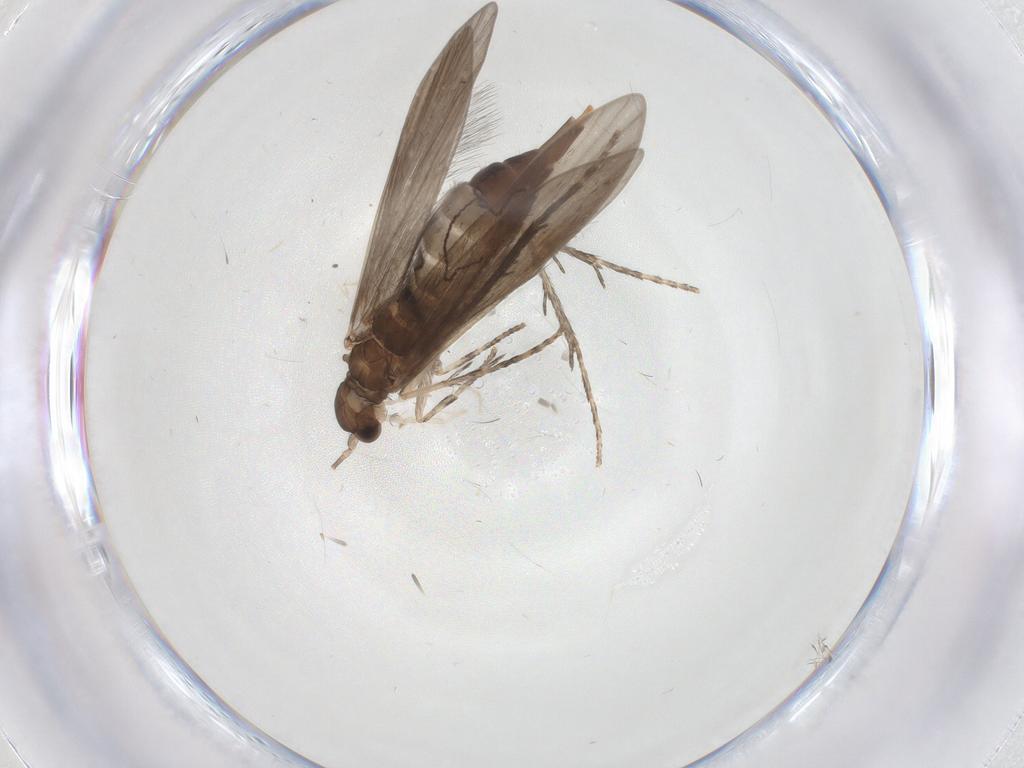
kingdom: Animalia
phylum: Arthropoda
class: Insecta
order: Trichoptera
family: Xiphocentronidae
